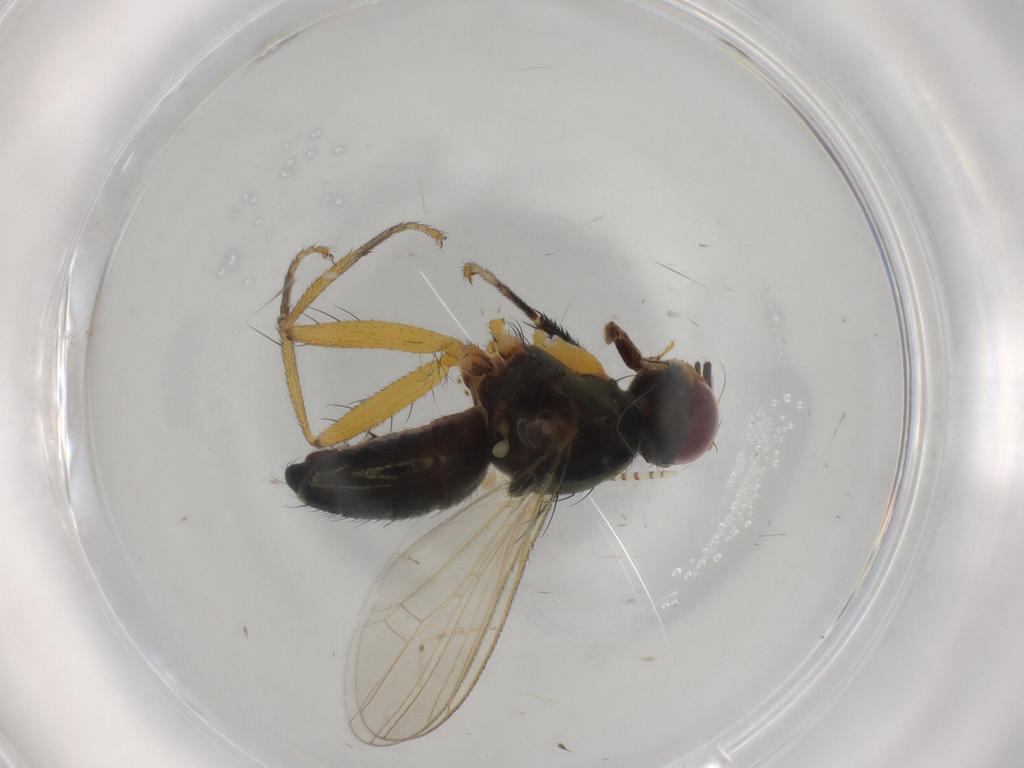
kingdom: Animalia
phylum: Arthropoda
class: Insecta
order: Diptera
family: Muscidae
